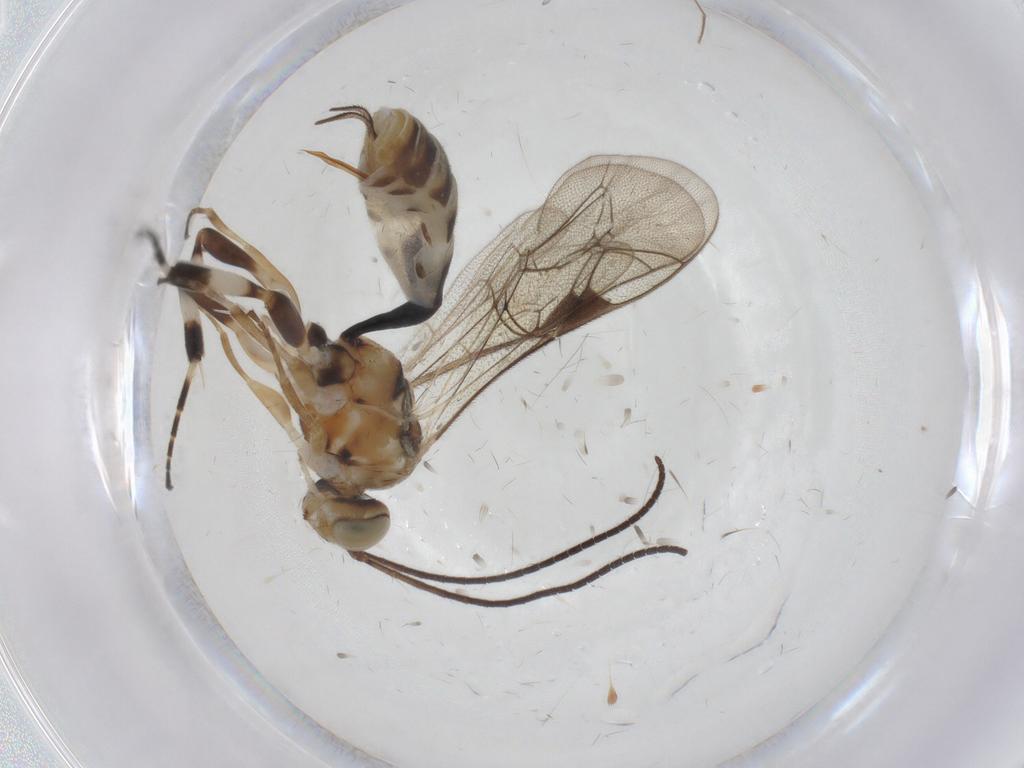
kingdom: Animalia
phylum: Arthropoda
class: Insecta
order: Hymenoptera
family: Ichneumonidae
